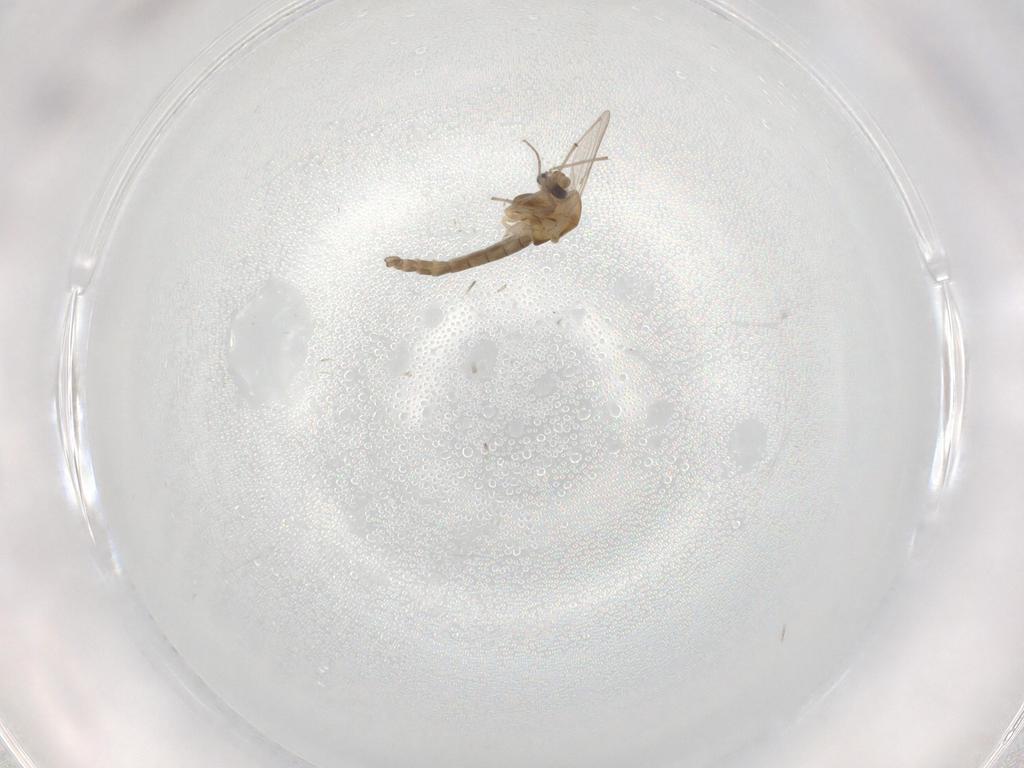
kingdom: Animalia
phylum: Arthropoda
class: Insecta
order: Diptera
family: Chironomidae
